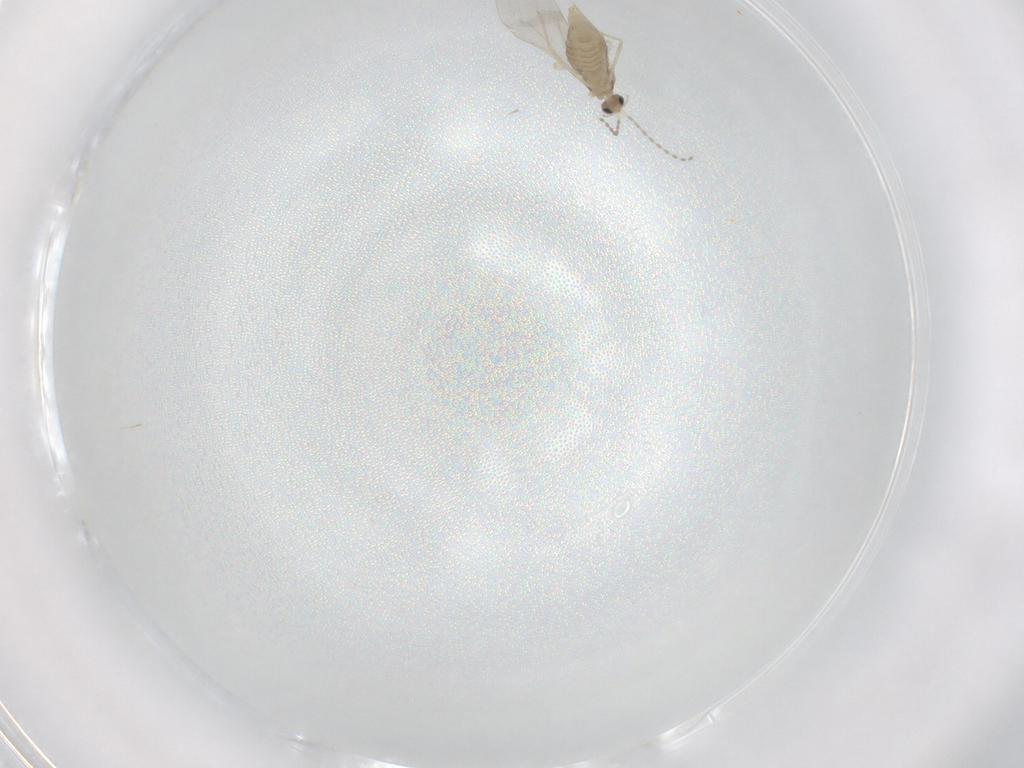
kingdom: Animalia
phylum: Arthropoda
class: Insecta
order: Diptera
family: Cecidomyiidae
